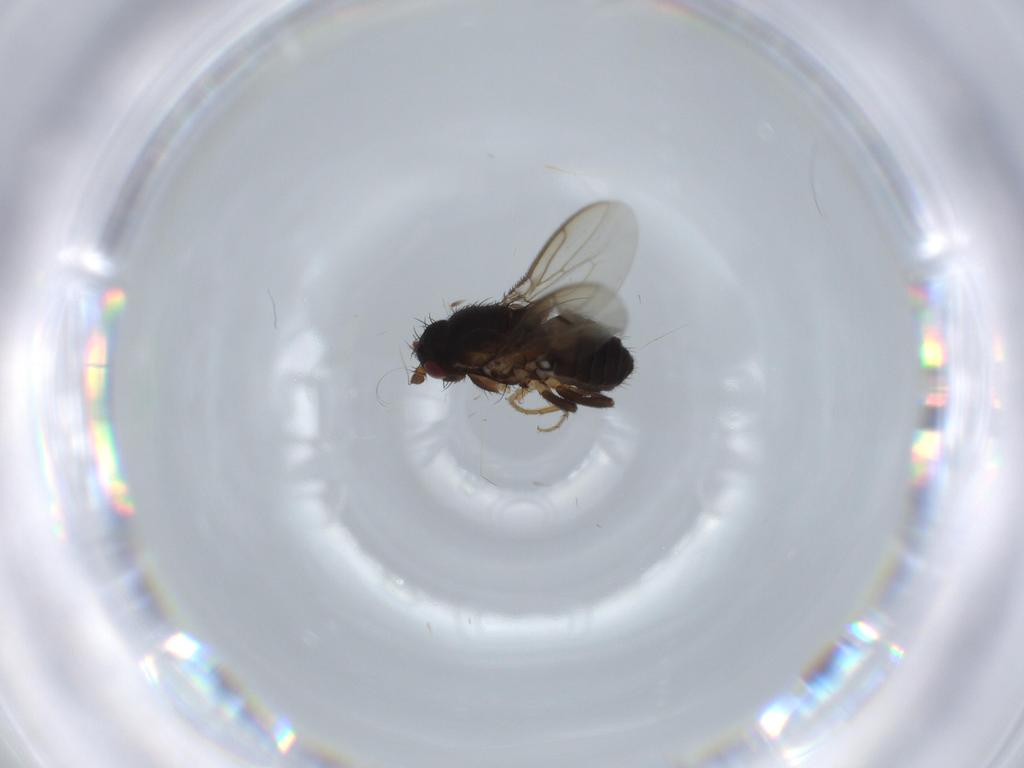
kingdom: Animalia
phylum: Arthropoda
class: Insecta
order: Diptera
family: Sphaeroceridae
